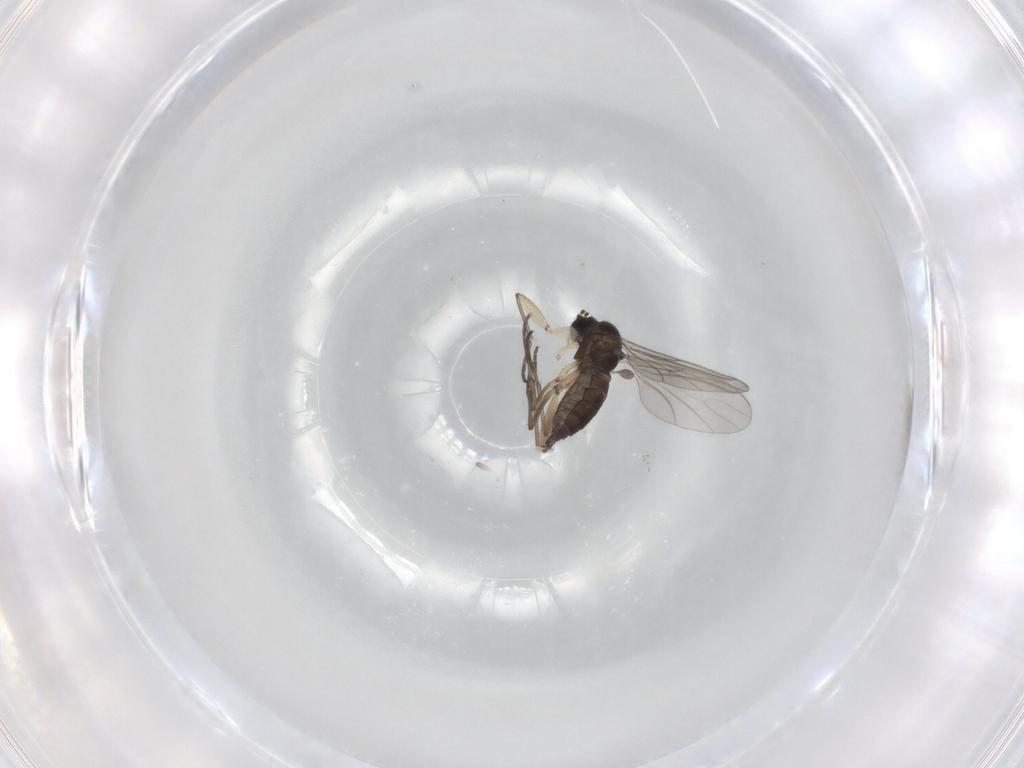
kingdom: Animalia
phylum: Arthropoda
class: Insecta
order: Diptera
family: Sciaridae
